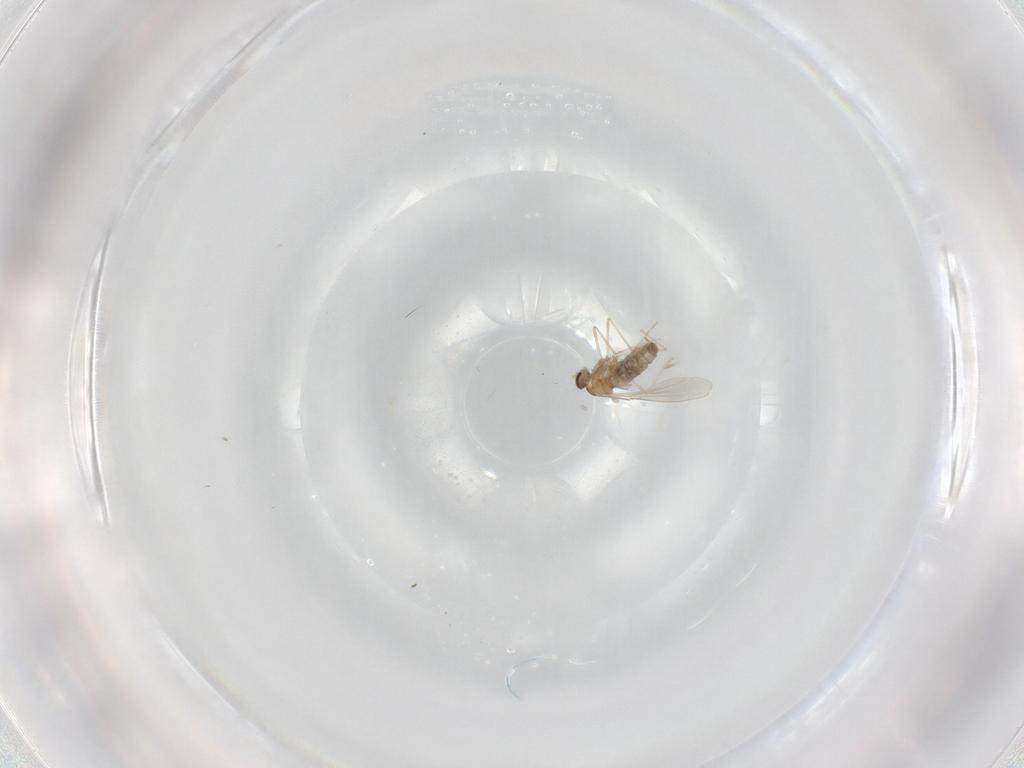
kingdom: Animalia
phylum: Arthropoda
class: Insecta
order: Diptera
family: Cecidomyiidae
